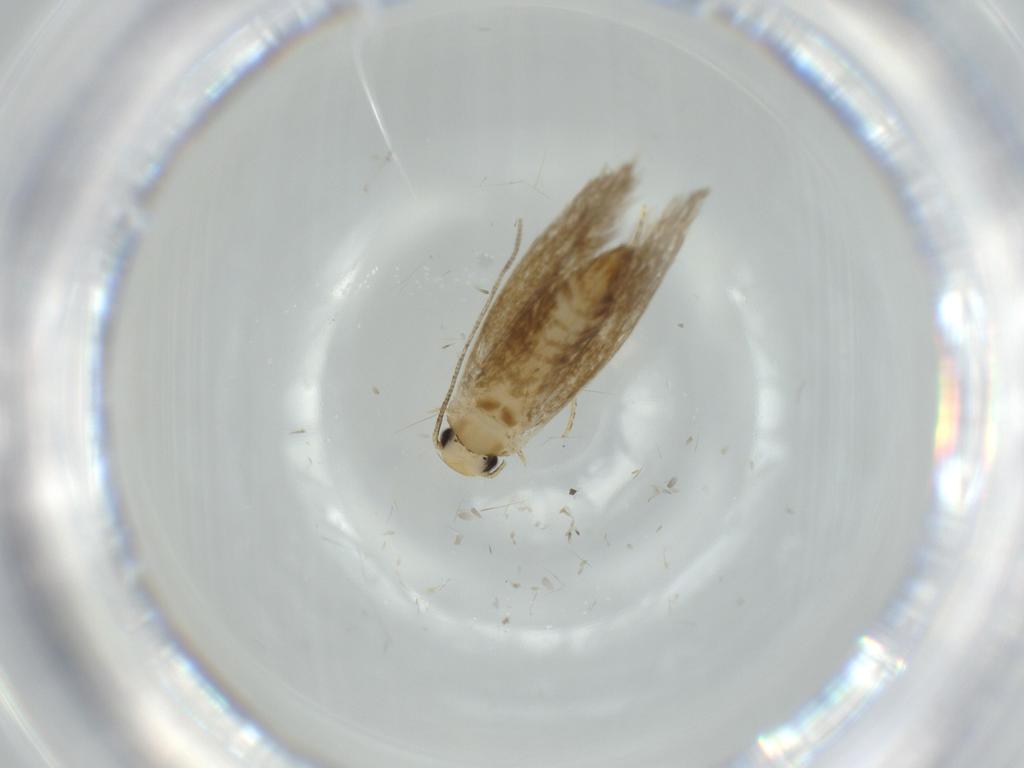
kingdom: Animalia
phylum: Arthropoda
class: Insecta
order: Lepidoptera
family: Tineidae
